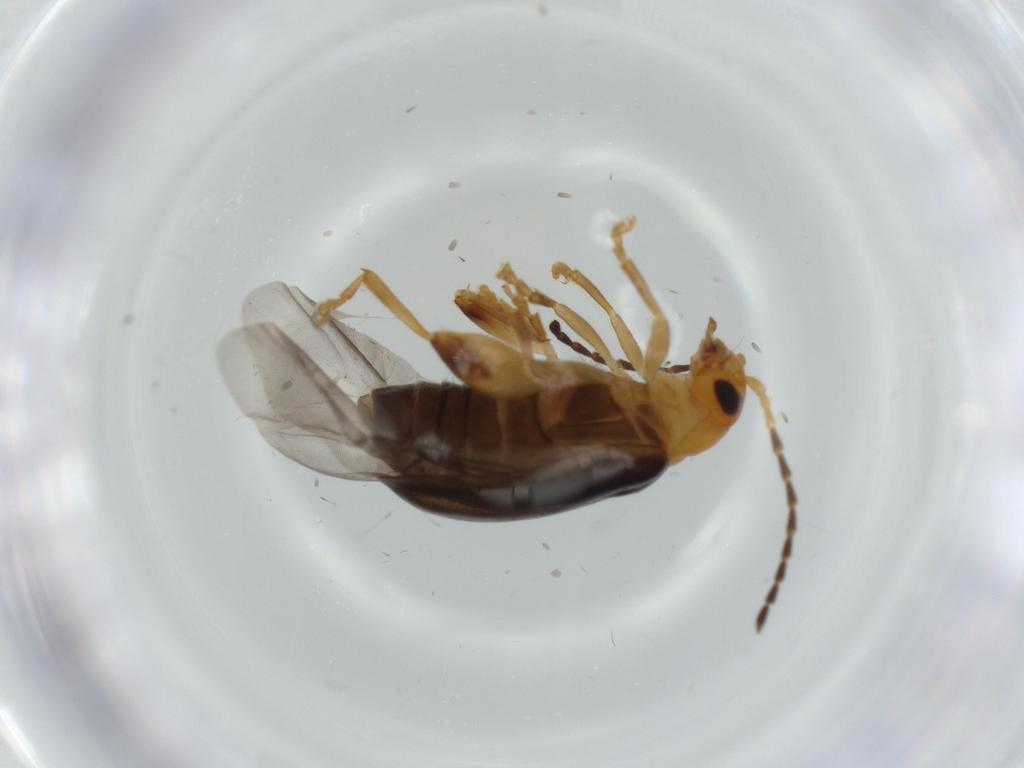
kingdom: Animalia
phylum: Arthropoda
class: Insecta
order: Coleoptera
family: Chrysomelidae
